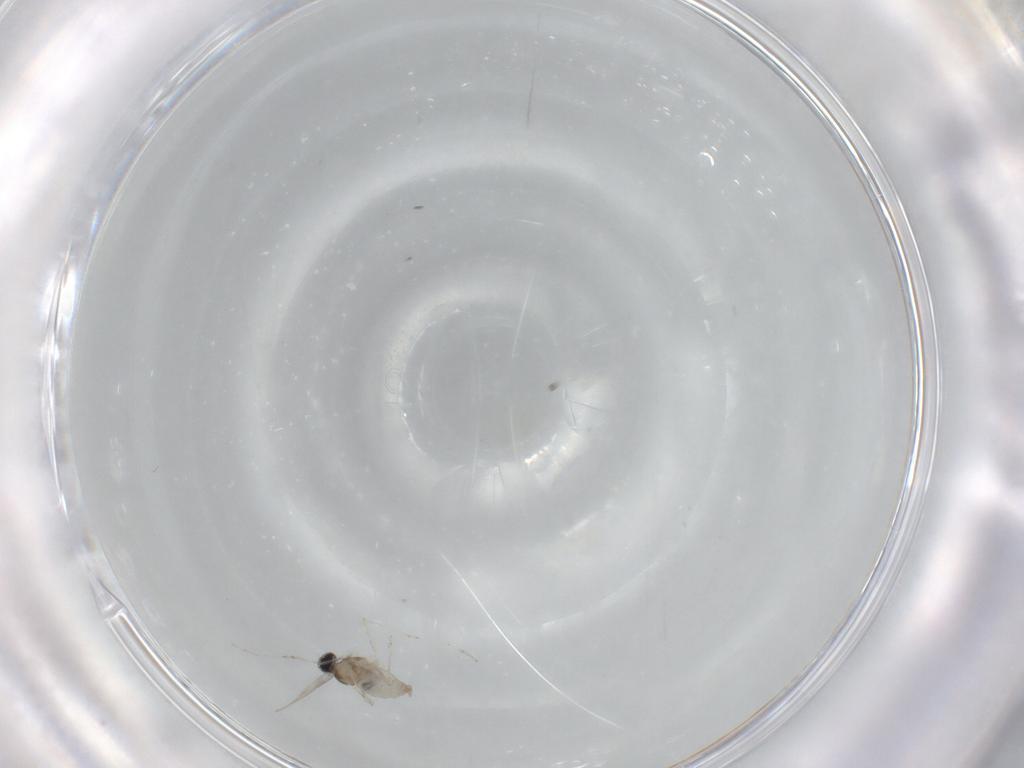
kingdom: Animalia
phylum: Arthropoda
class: Insecta
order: Diptera
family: Cecidomyiidae
